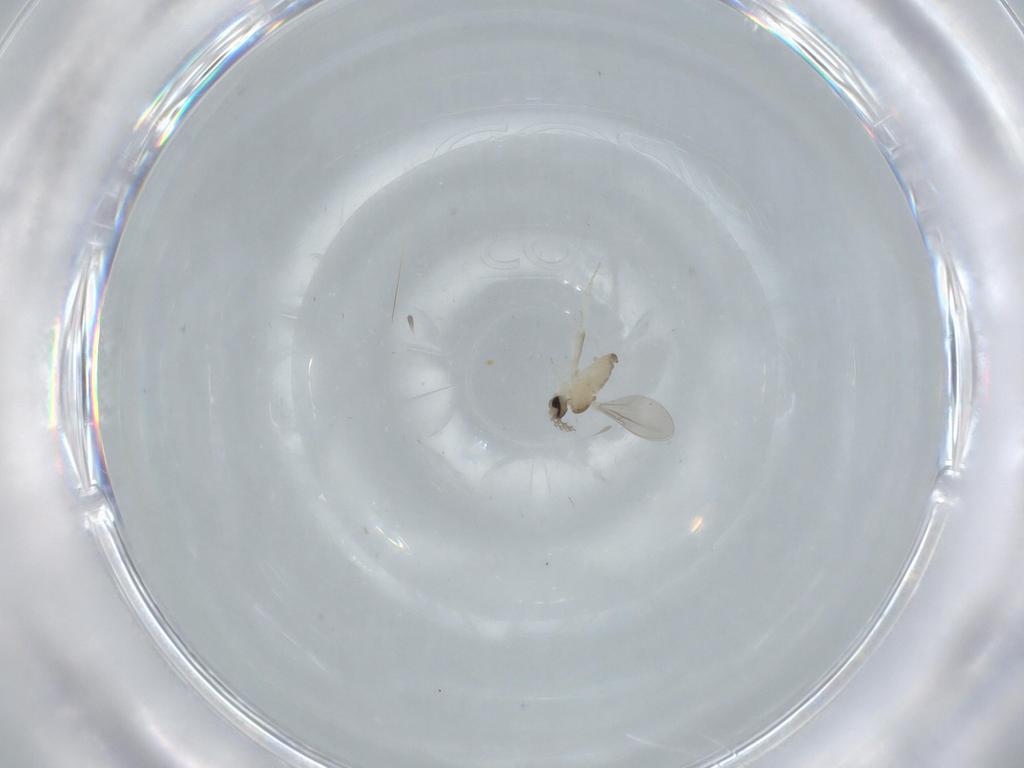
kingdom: Animalia
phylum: Arthropoda
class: Insecta
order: Diptera
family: Cecidomyiidae
